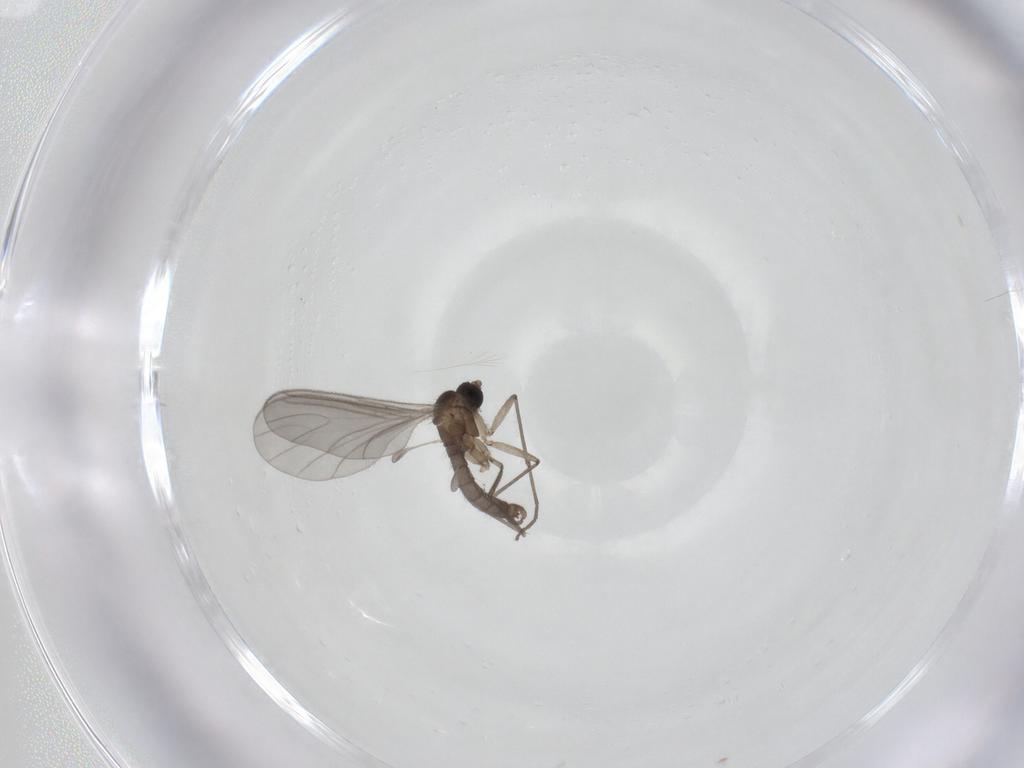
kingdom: Animalia
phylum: Arthropoda
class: Insecta
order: Diptera
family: Sciaridae
